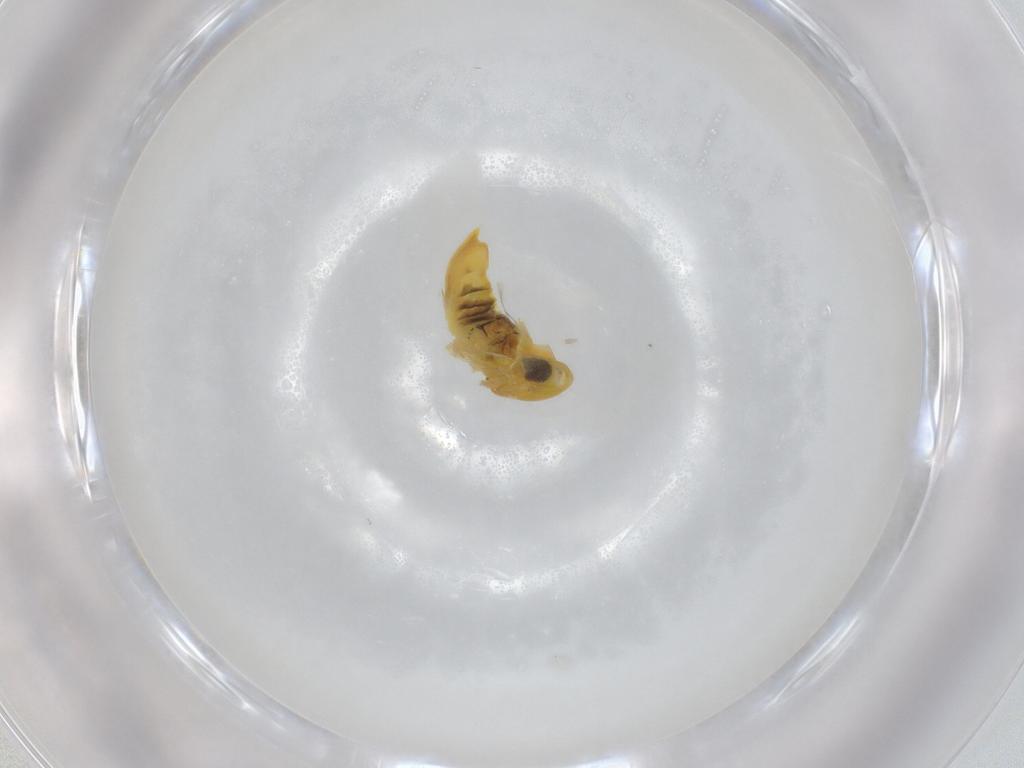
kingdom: Animalia
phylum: Arthropoda
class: Insecta
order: Hemiptera
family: Cicadellidae
